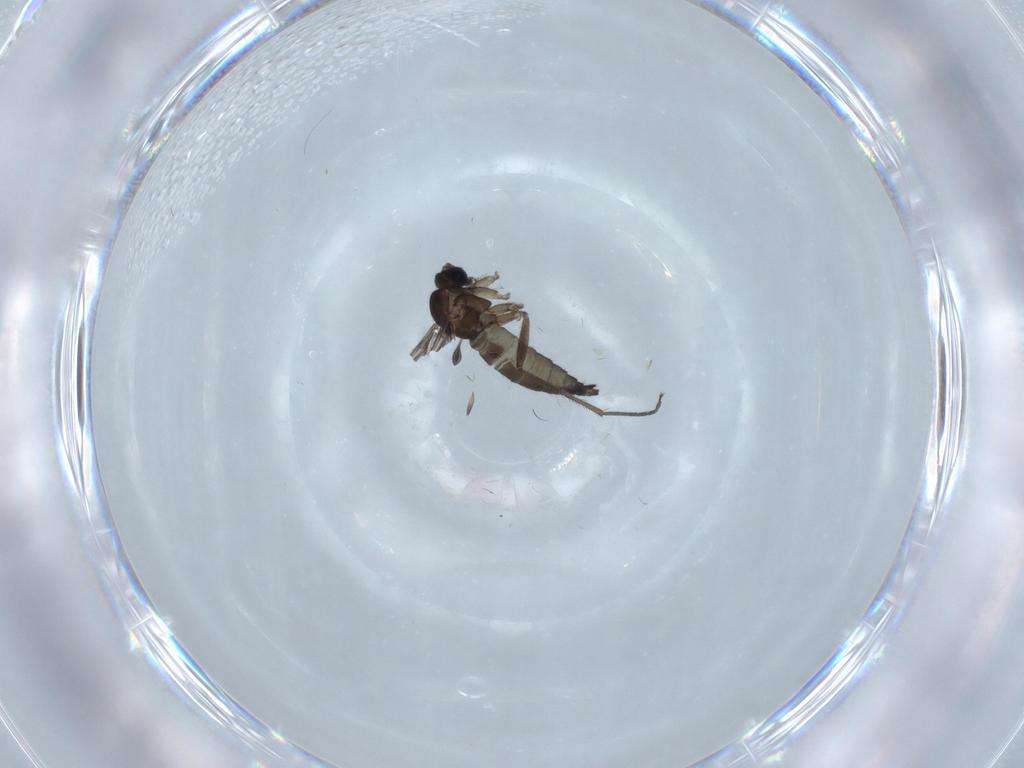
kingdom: Animalia
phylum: Arthropoda
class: Insecta
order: Diptera
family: Sciaridae
